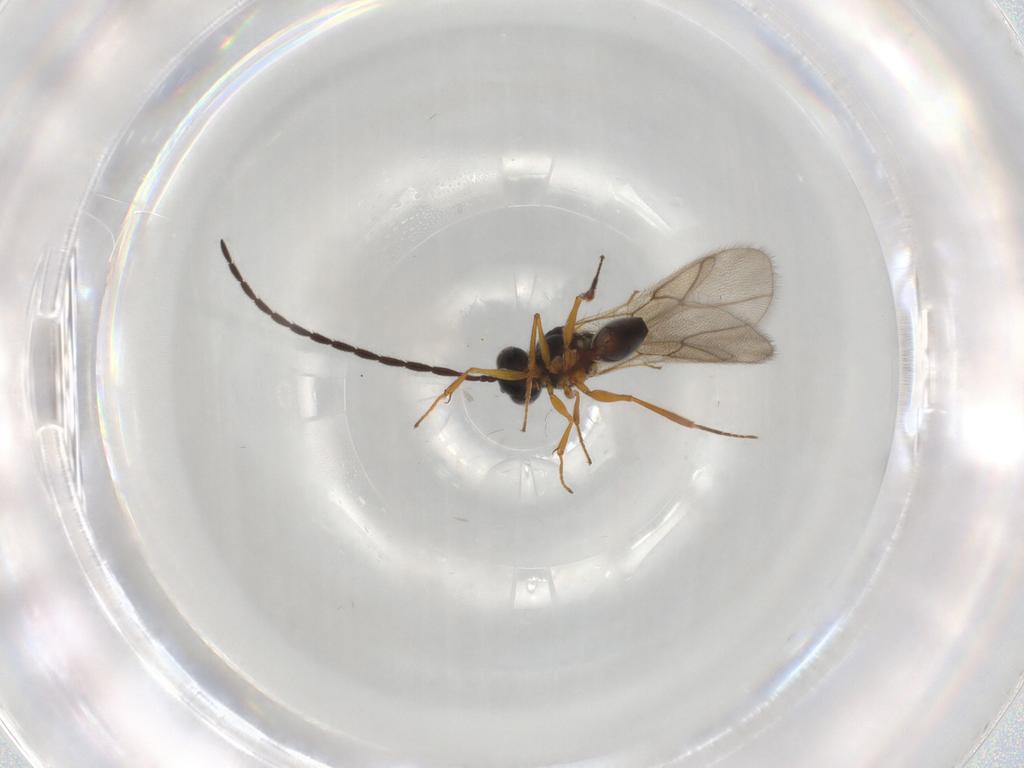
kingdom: Animalia
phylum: Arthropoda
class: Insecta
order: Hymenoptera
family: Figitidae
